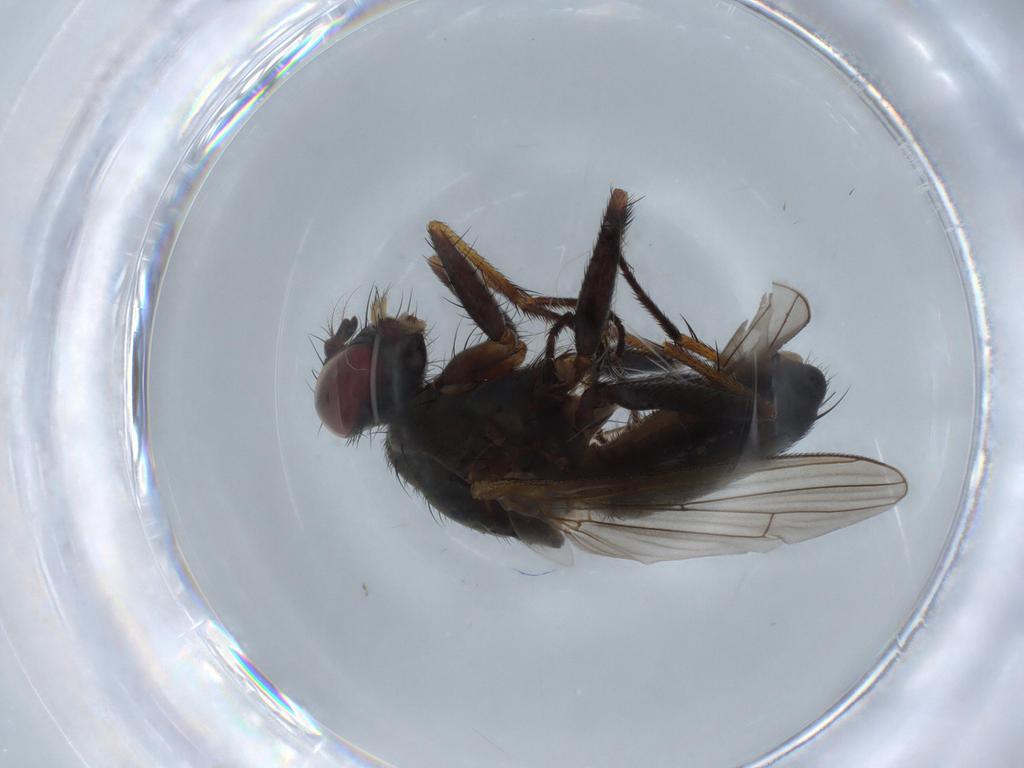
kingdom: Animalia
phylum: Arthropoda
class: Insecta
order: Diptera
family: Muscidae
